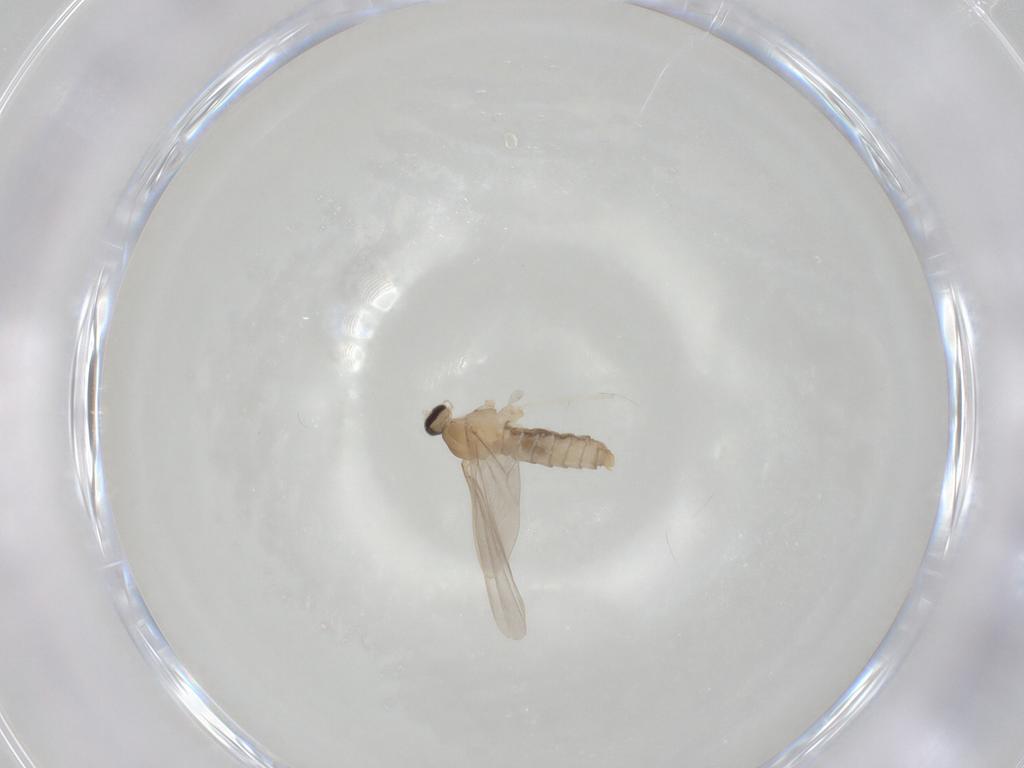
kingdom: Animalia
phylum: Arthropoda
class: Insecta
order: Diptera
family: Cecidomyiidae
